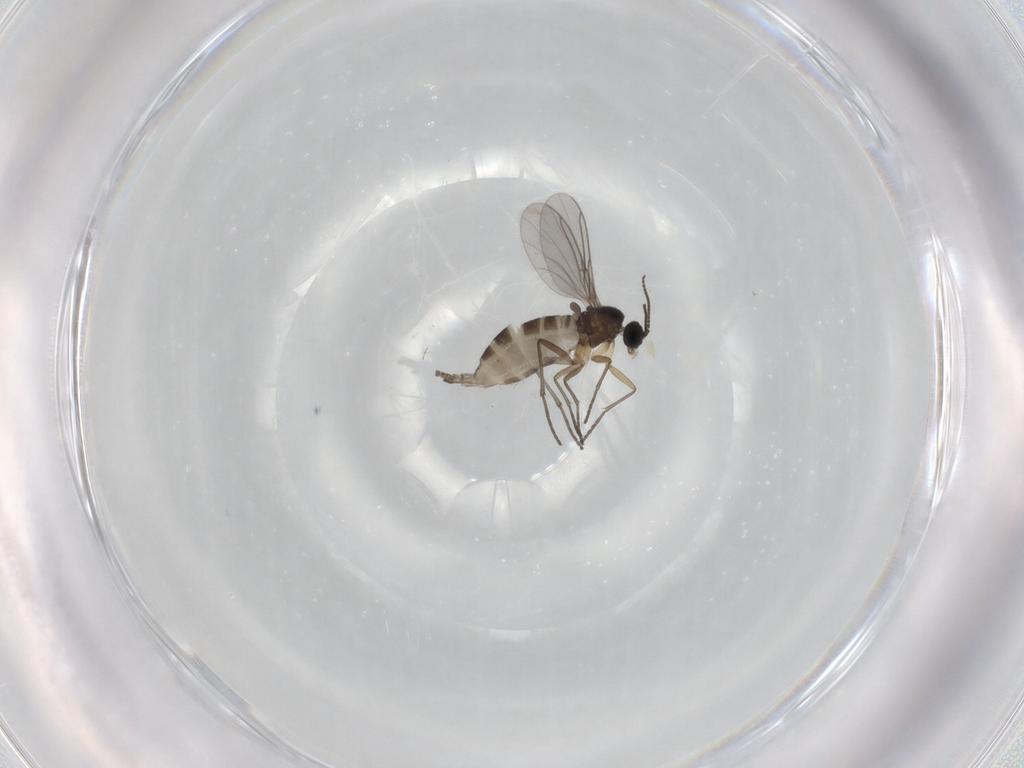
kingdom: Animalia
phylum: Arthropoda
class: Insecta
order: Diptera
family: Sciaridae
